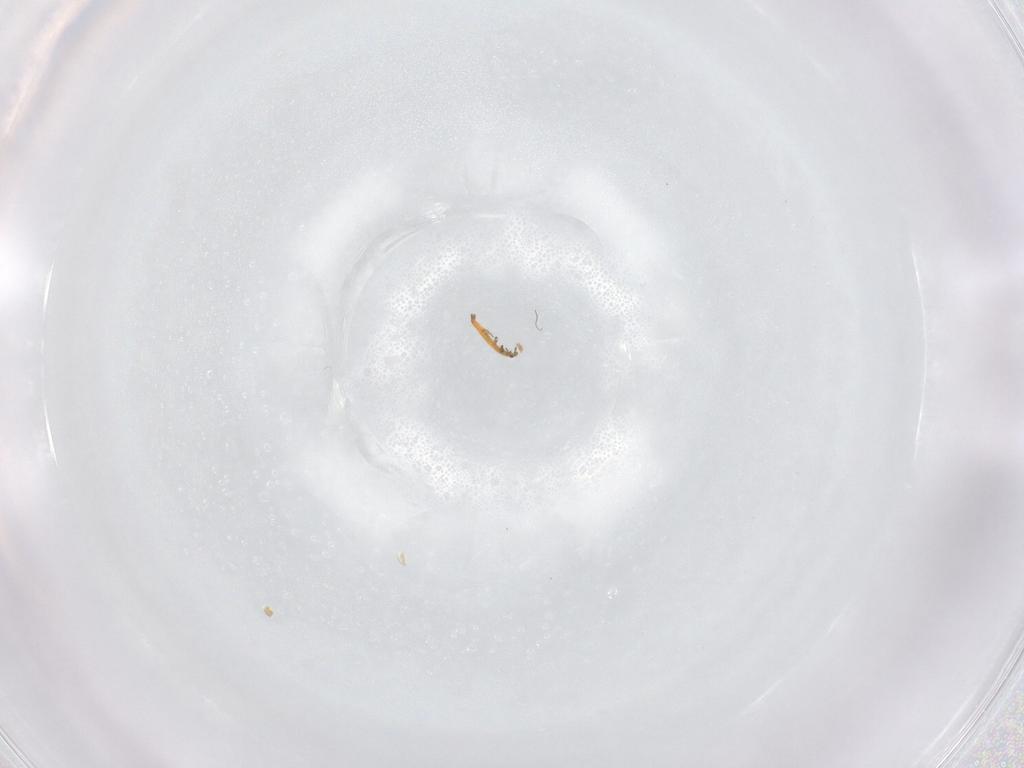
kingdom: Animalia
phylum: Arthropoda
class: Insecta
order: Thysanoptera
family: Thripidae
